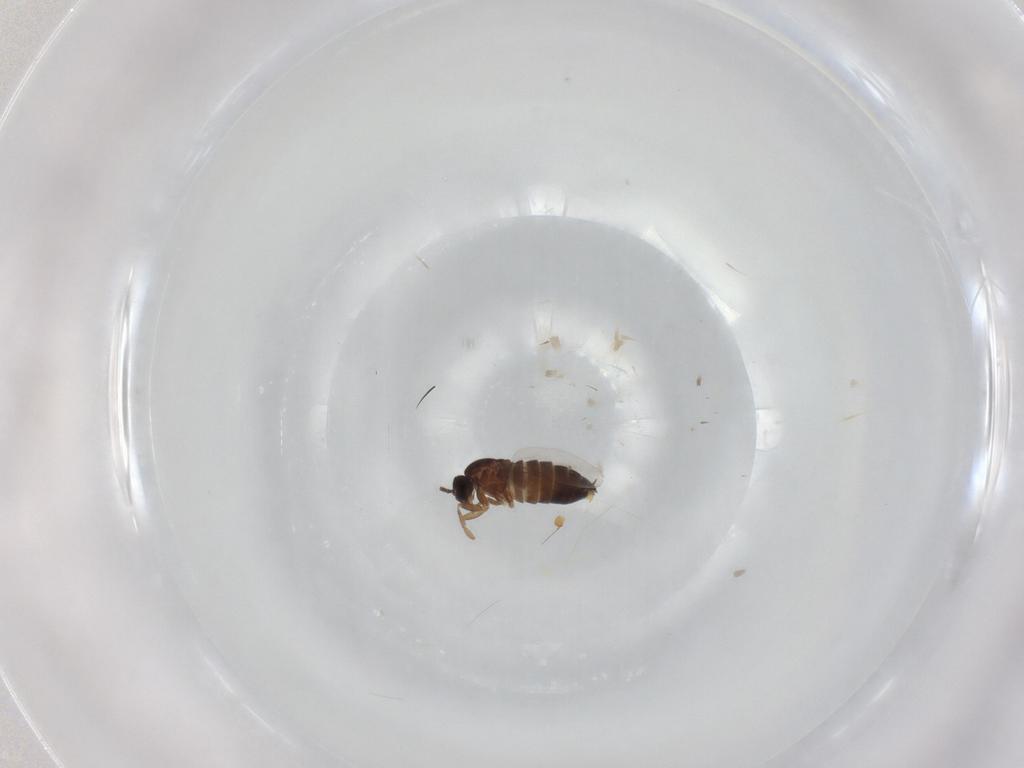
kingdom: Animalia
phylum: Arthropoda
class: Insecta
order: Diptera
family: Scatopsidae
